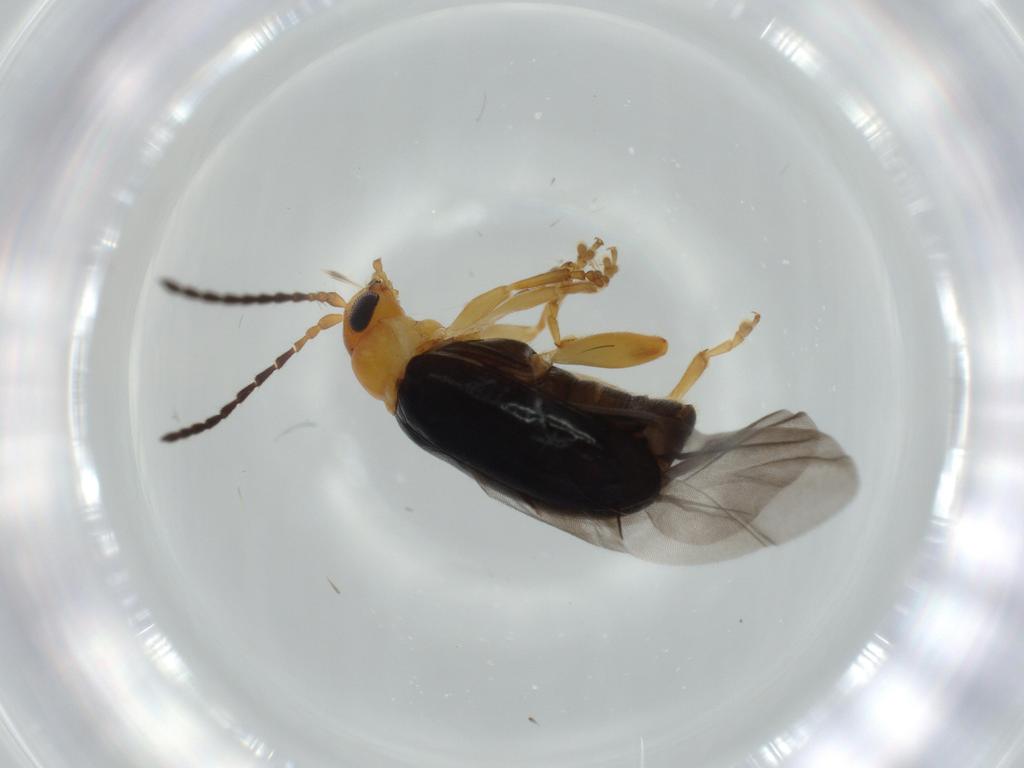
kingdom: Animalia
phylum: Arthropoda
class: Insecta
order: Coleoptera
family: Chrysomelidae
